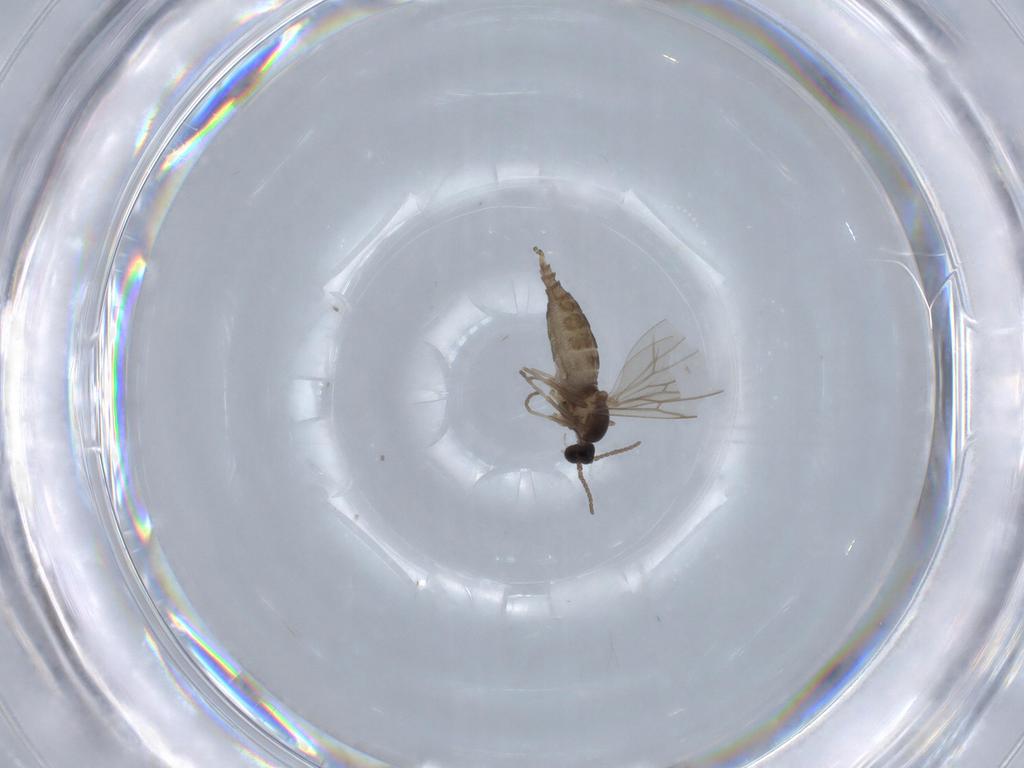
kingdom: Animalia
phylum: Arthropoda
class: Insecta
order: Diptera
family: Cecidomyiidae
